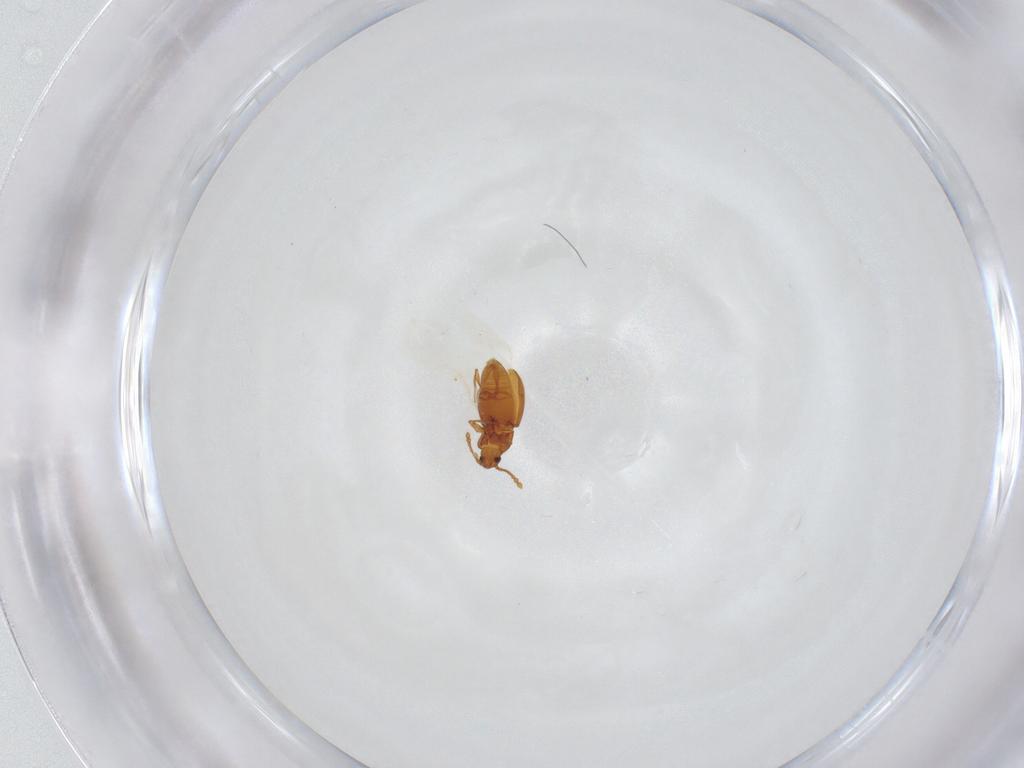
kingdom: Animalia
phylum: Arthropoda
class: Insecta
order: Coleoptera
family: Staphylinidae
